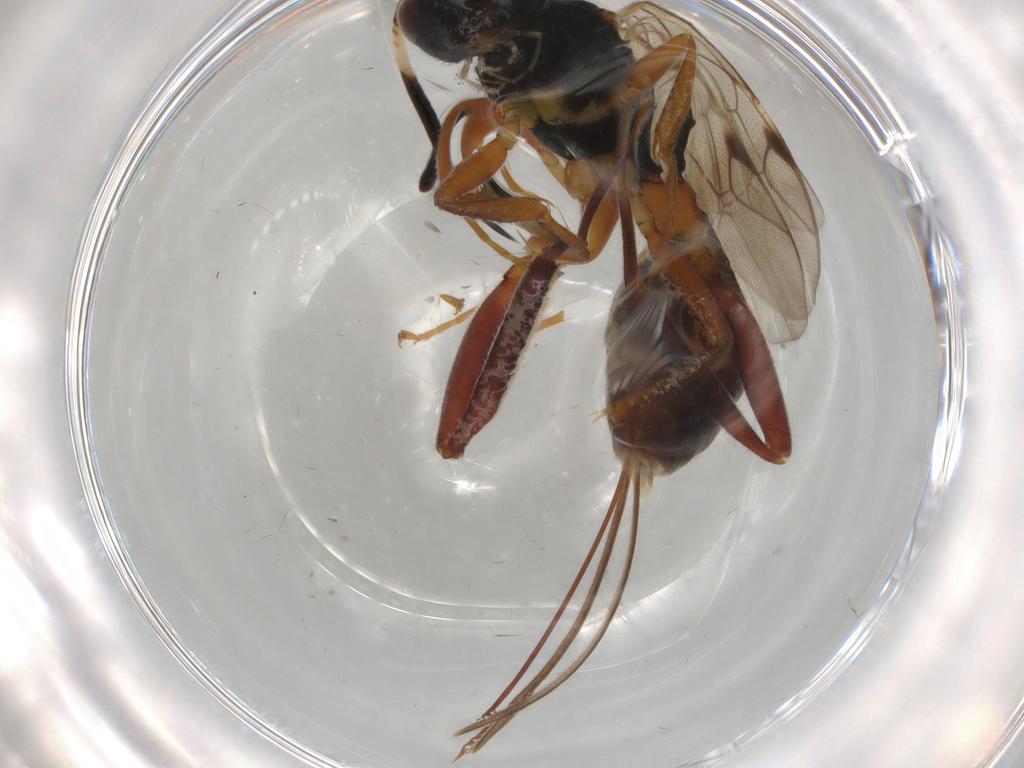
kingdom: Animalia
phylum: Arthropoda
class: Insecta
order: Hymenoptera
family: Ichneumonidae
